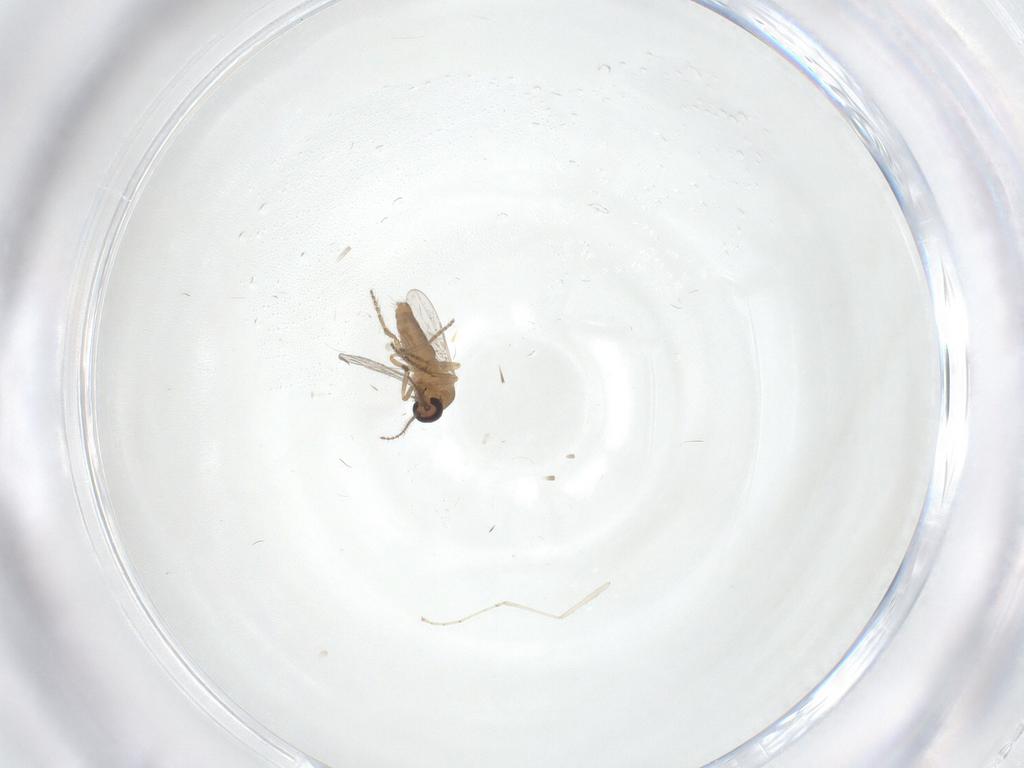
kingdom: Animalia
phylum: Arthropoda
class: Insecta
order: Diptera
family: Ceratopogonidae
